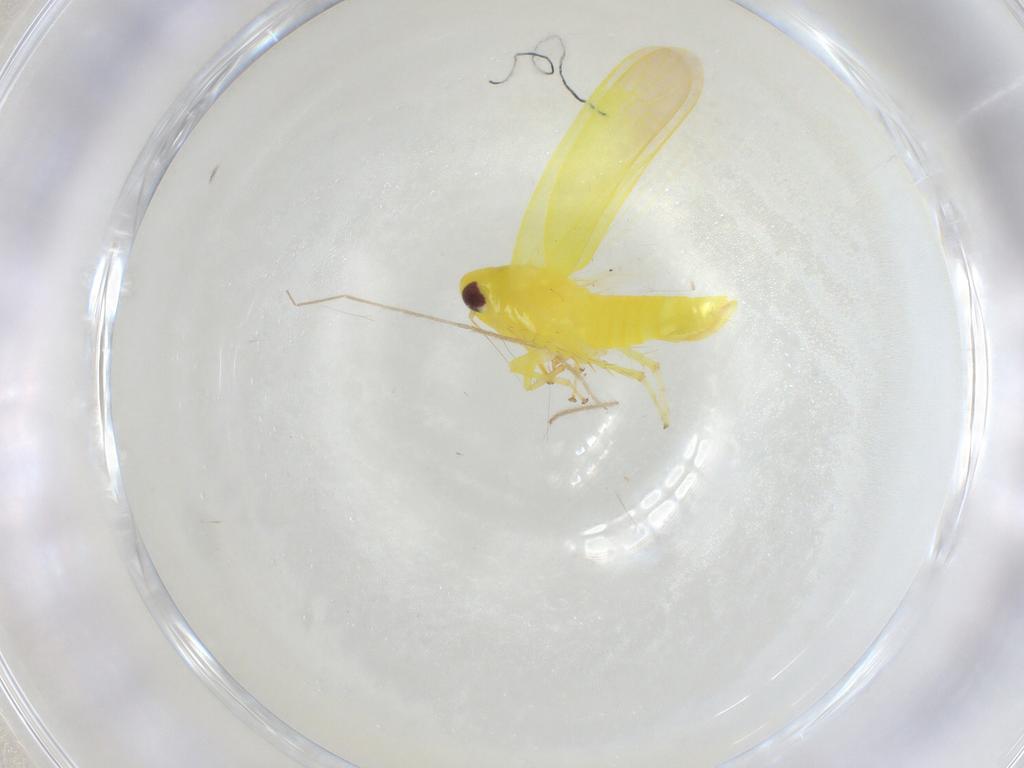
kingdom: Animalia
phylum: Arthropoda
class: Insecta
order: Hemiptera
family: Cicadellidae
